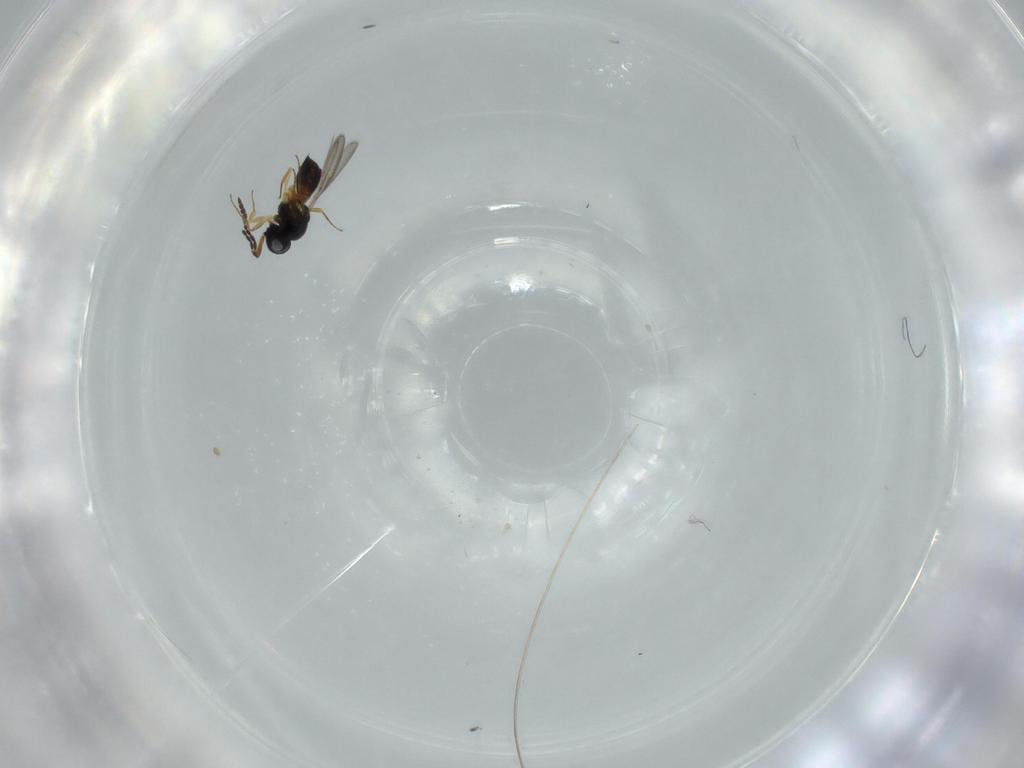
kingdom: Animalia
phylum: Arthropoda
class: Insecta
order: Hymenoptera
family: Scelionidae
